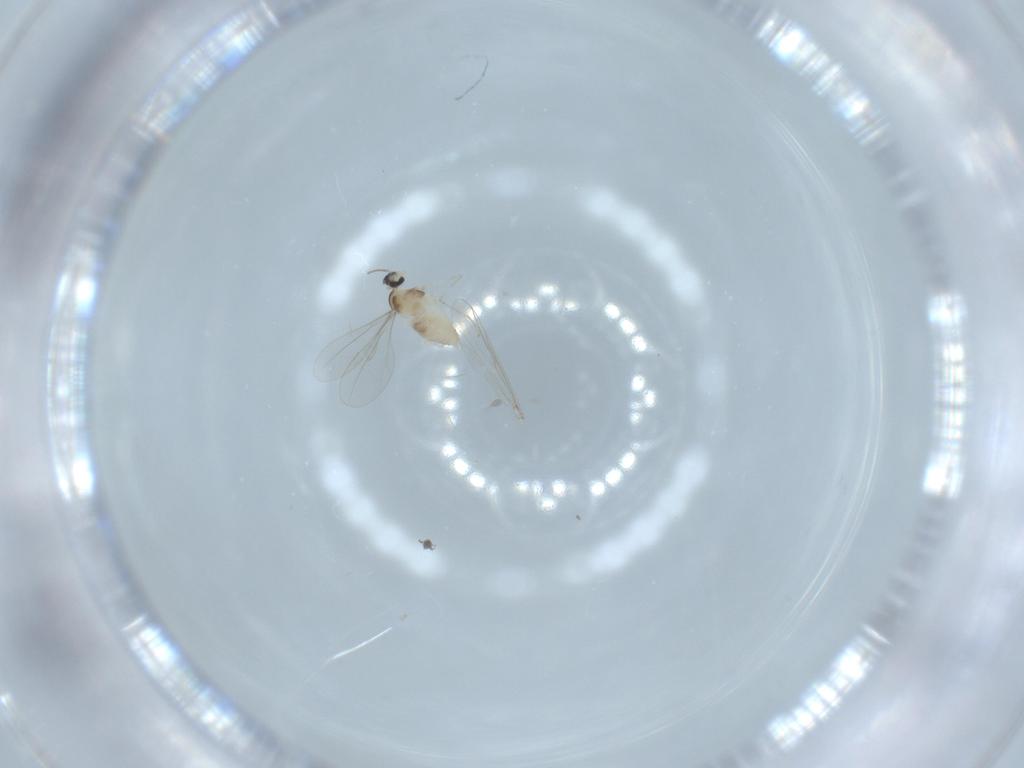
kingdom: Animalia
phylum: Arthropoda
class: Insecta
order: Diptera
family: Cecidomyiidae
